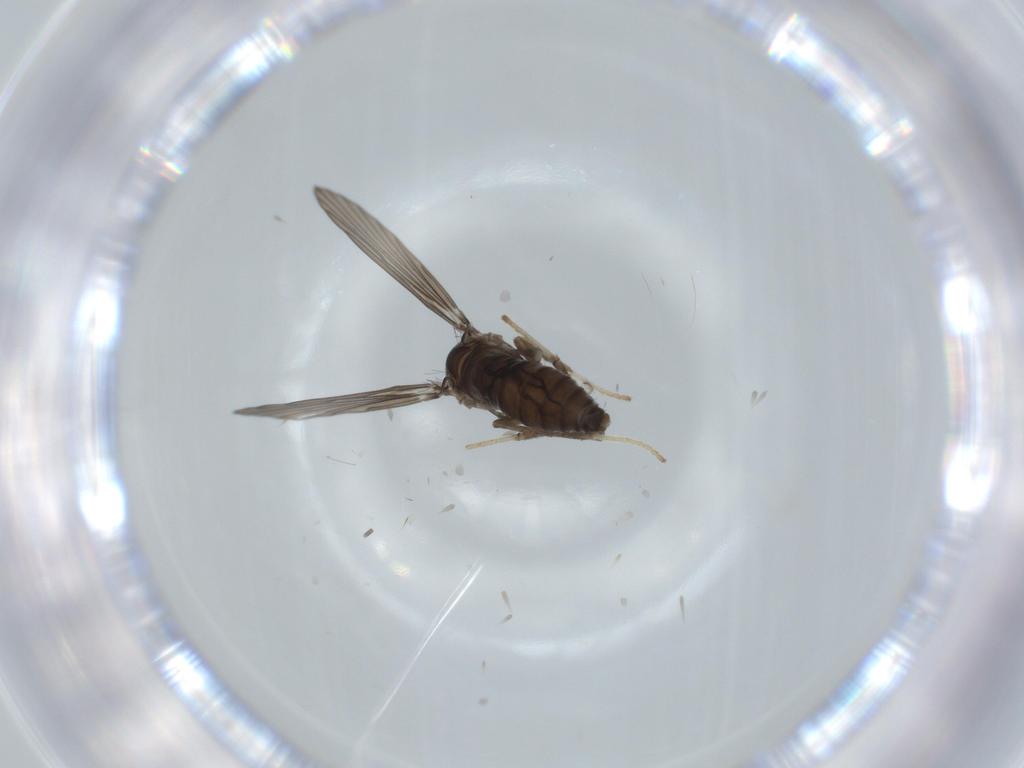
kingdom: Animalia
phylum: Arthropoda
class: Insecta
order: Diptera
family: Psychodidae
